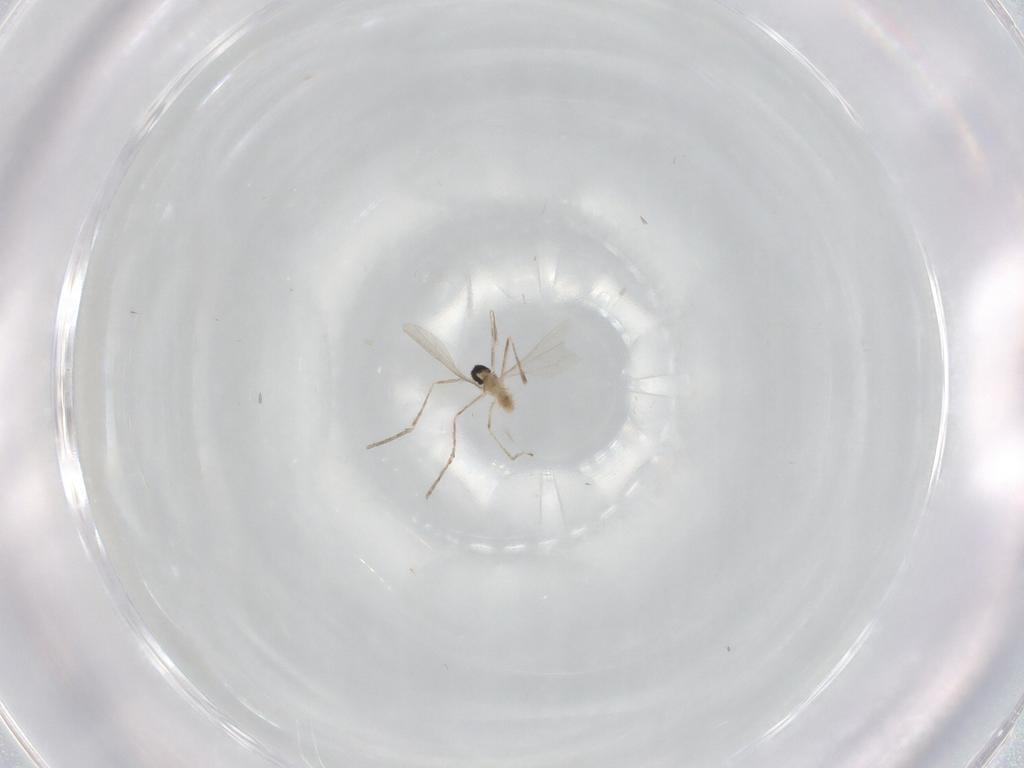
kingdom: Animalia
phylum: Arthropoda
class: Insecta
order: Diptera
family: Cecidomyiidae
